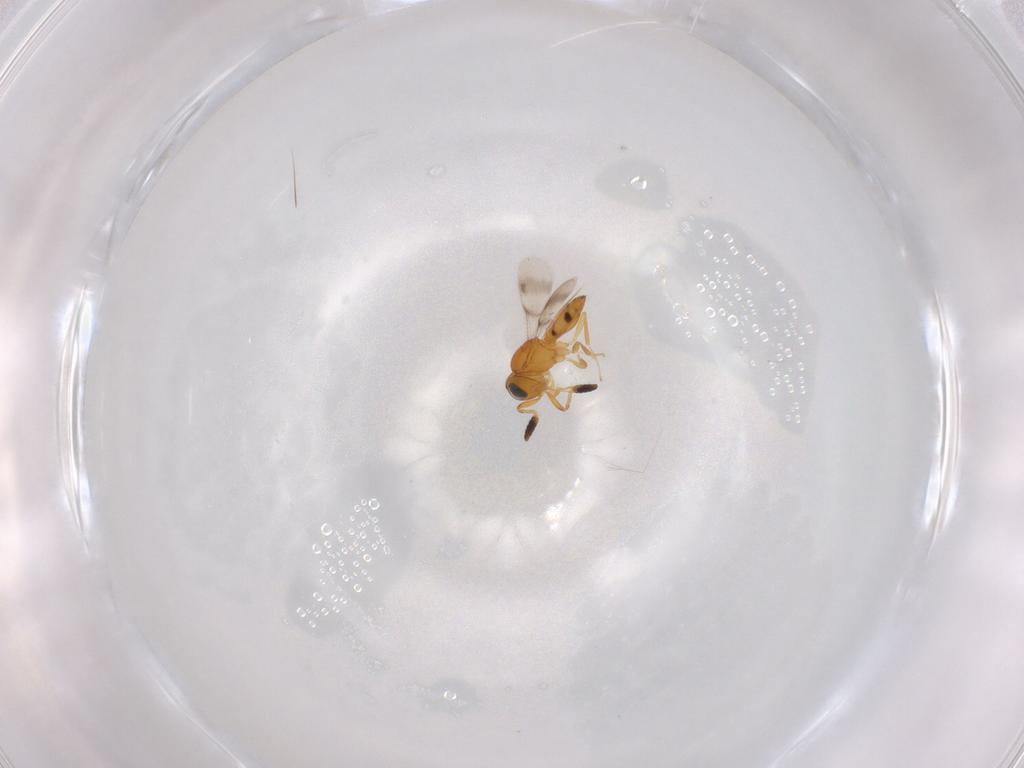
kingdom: Animalia
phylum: Arthropoda
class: Insecta
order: Hymenoptera
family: Scelionidae
